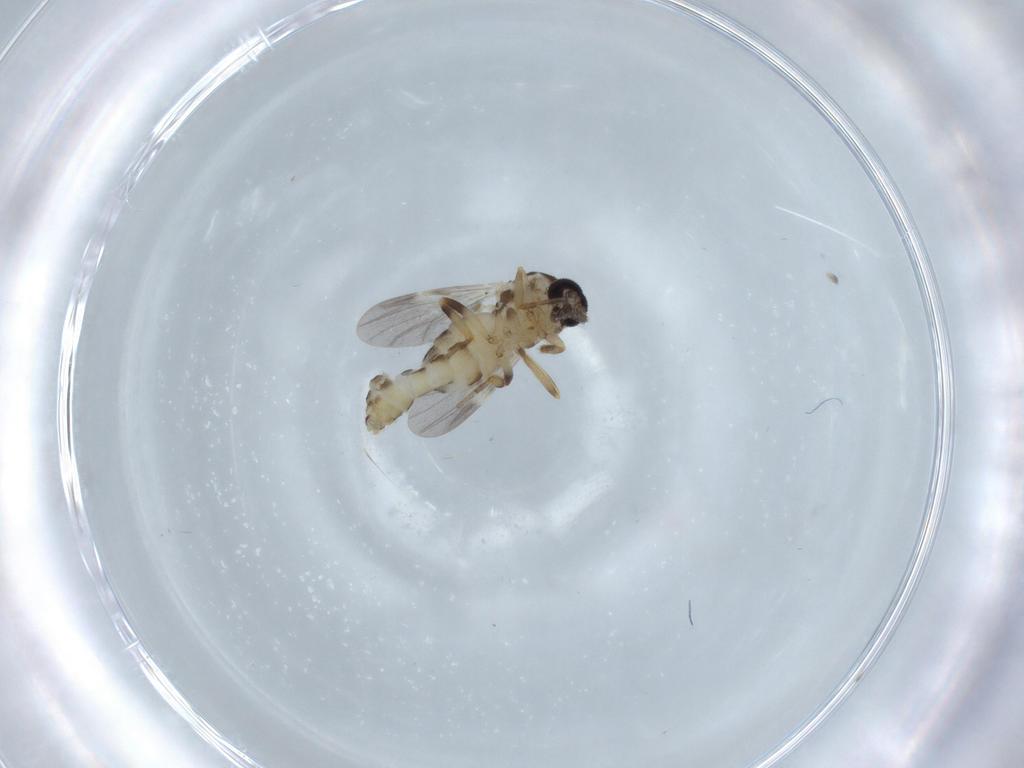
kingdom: Animalia
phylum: Arthropoda
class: Insecta
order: Diptera
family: Ceratopogonidae
